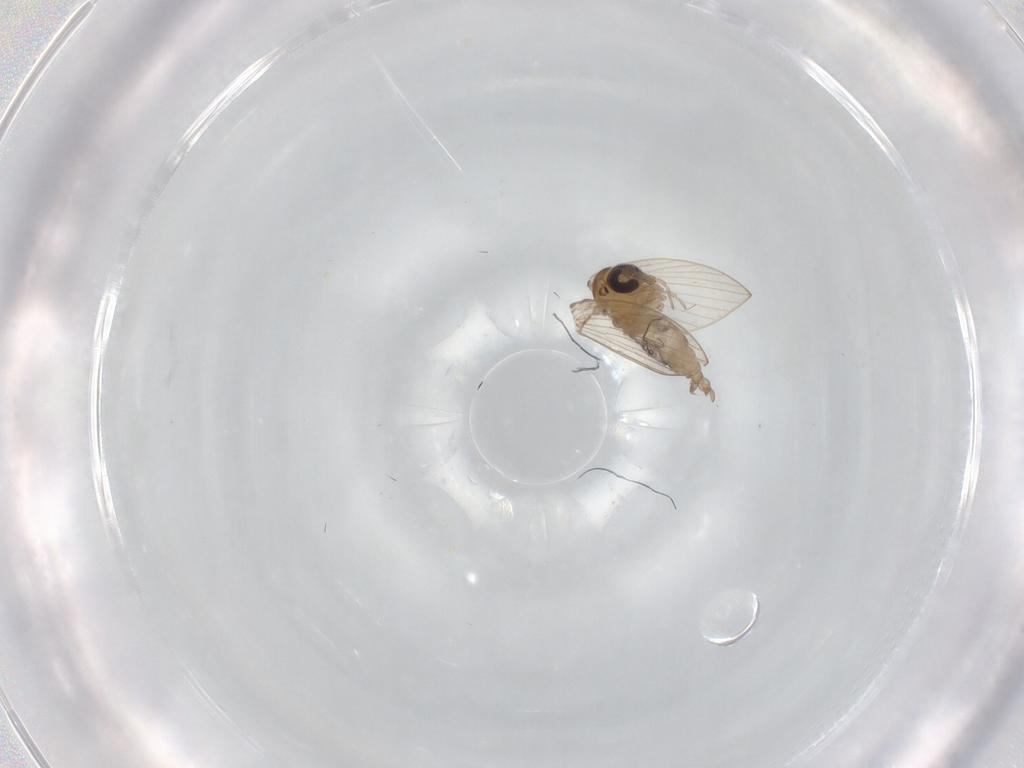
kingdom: Animalia
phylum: Arthropoda
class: Insecta
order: Diptera
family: Psychodidae
